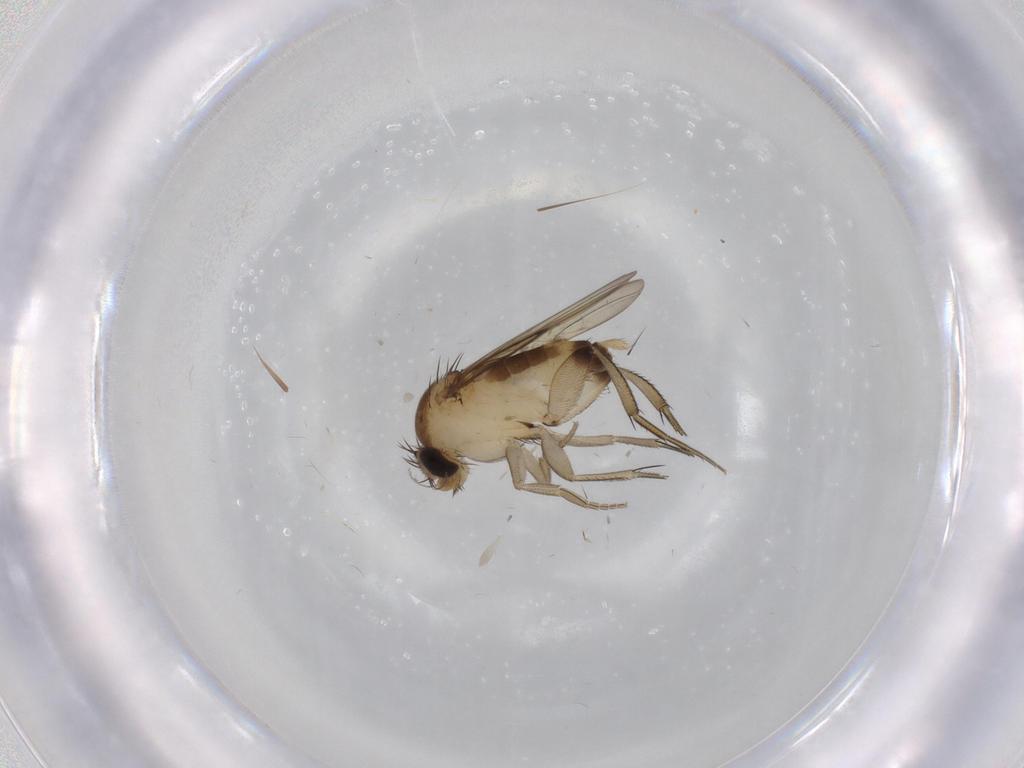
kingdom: Animalia
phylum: Arthropoda
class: Insecta
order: Diptera
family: Phoridae
